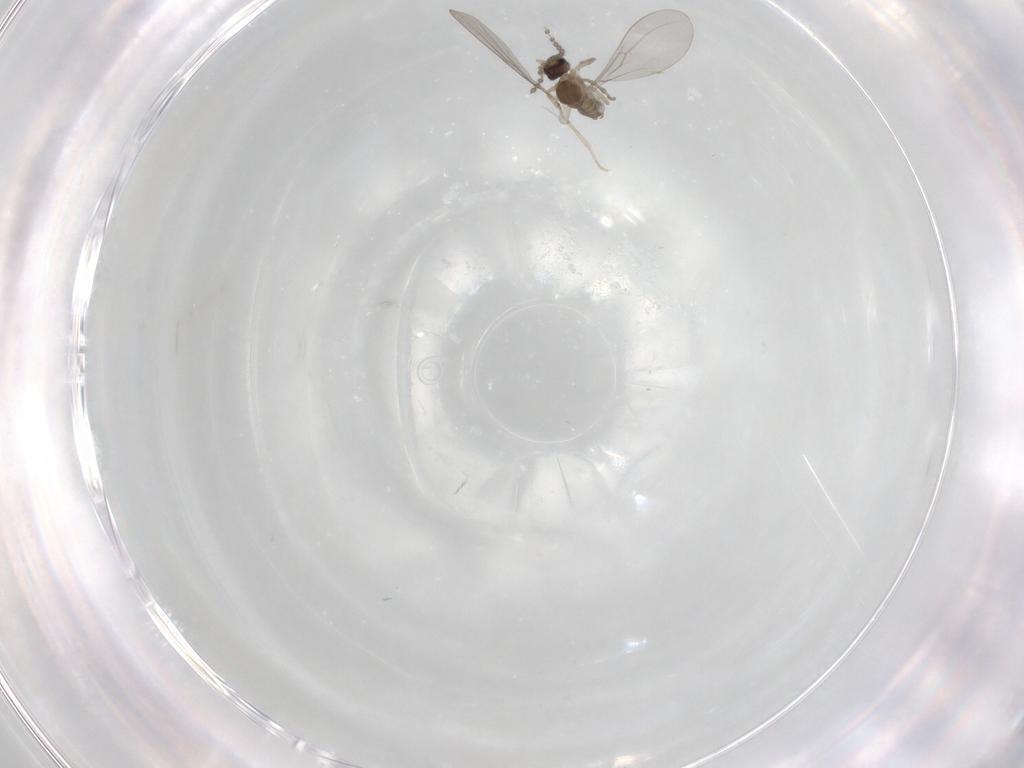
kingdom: Animalia
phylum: Arthropoda
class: Insecta
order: Diptera
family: Cecidomyiidae
